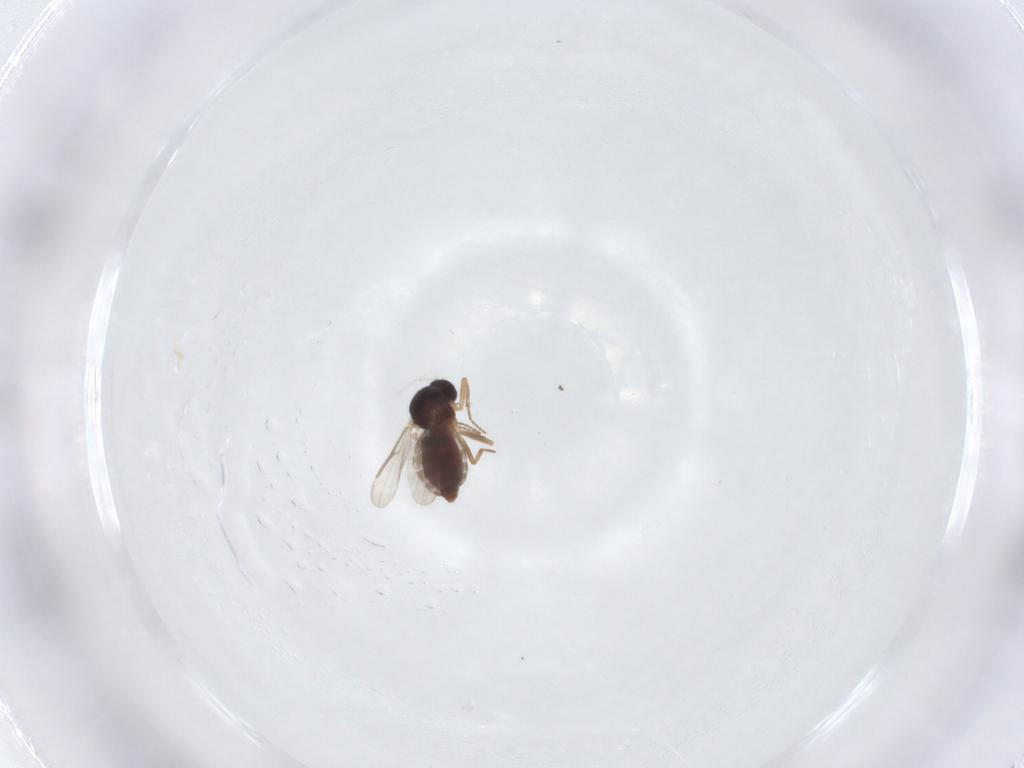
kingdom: Animalia
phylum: Arthropoda
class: Insecta
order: Diptera
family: Ceratopogonidae
